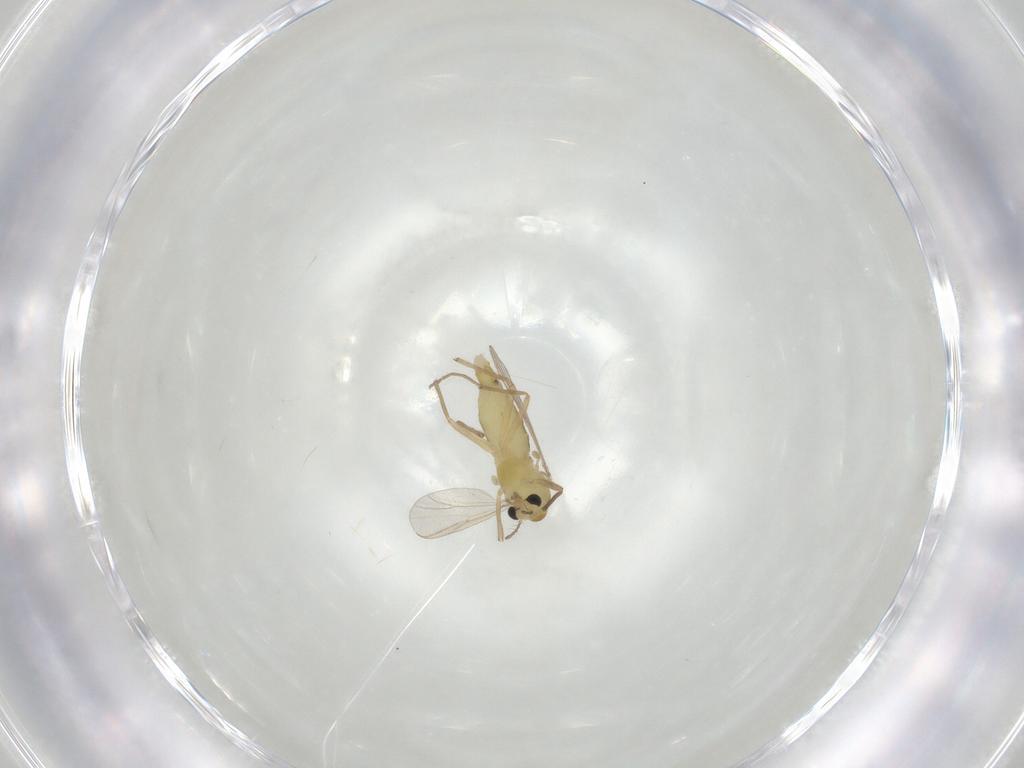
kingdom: Animalia
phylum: Arthropoda
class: Insecta
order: Diptera
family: Chironomidae
